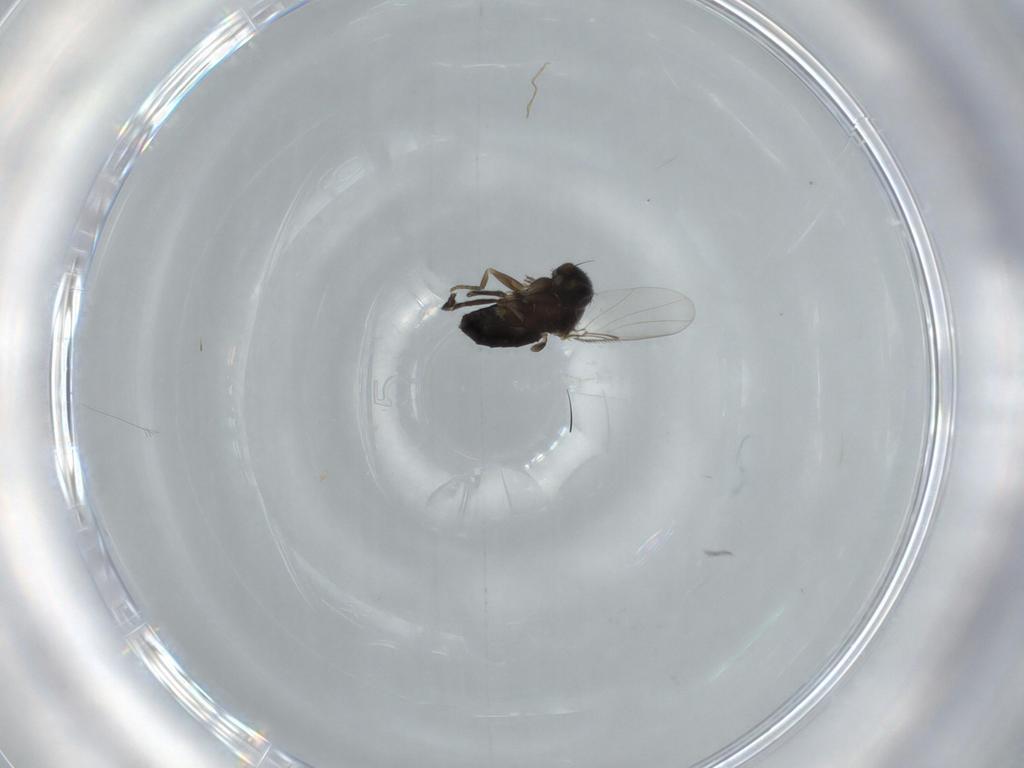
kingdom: Animalia
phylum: Arthropoda
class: Insecta
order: Diptera
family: Phoridae
